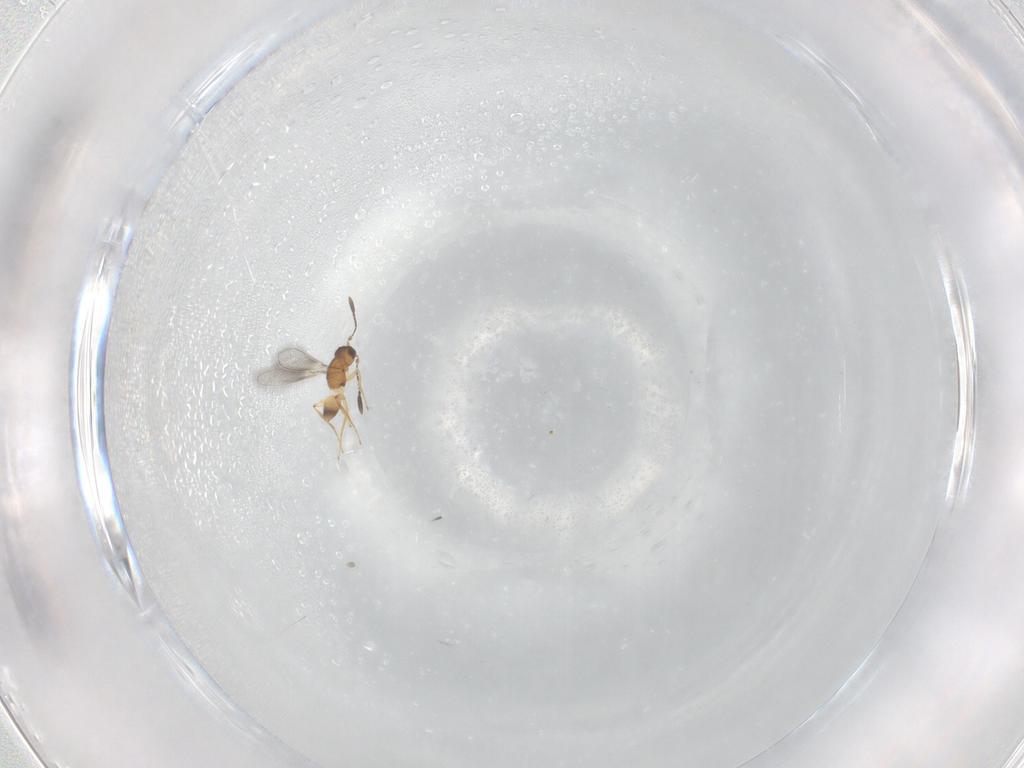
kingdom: Animalia
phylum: Arthropoda
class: Insecta
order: Hymenoptera
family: Mymaridae
